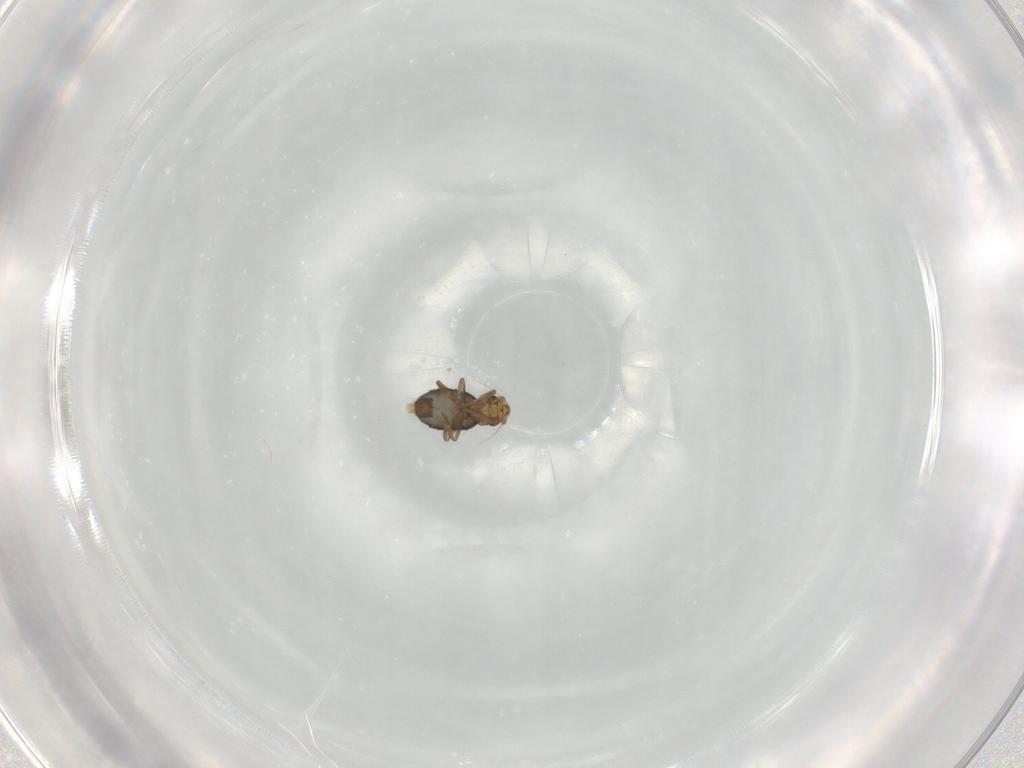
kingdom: Animalia
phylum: Arthropoda
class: Insecta
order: Diptera
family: Phoridae
